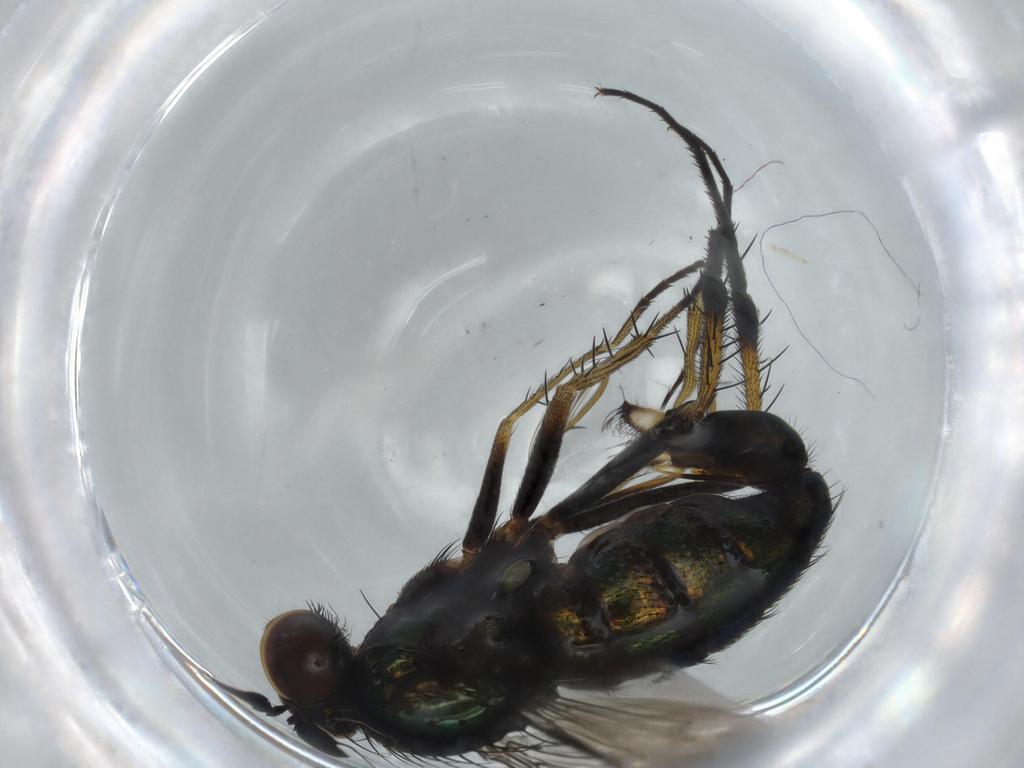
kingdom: Animalia
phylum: Arthropoda
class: Insecta
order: Diptera
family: Dolichopodidae
